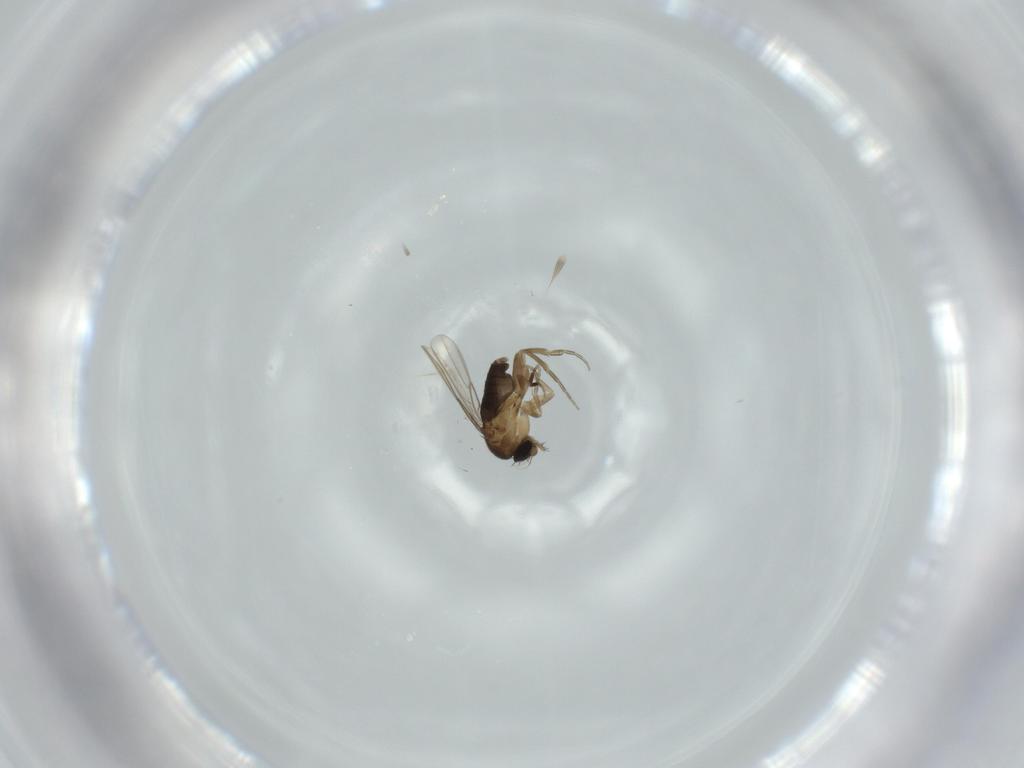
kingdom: Animalia
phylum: Arthropoda
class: Insecta
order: Diptera
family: Phoridae
